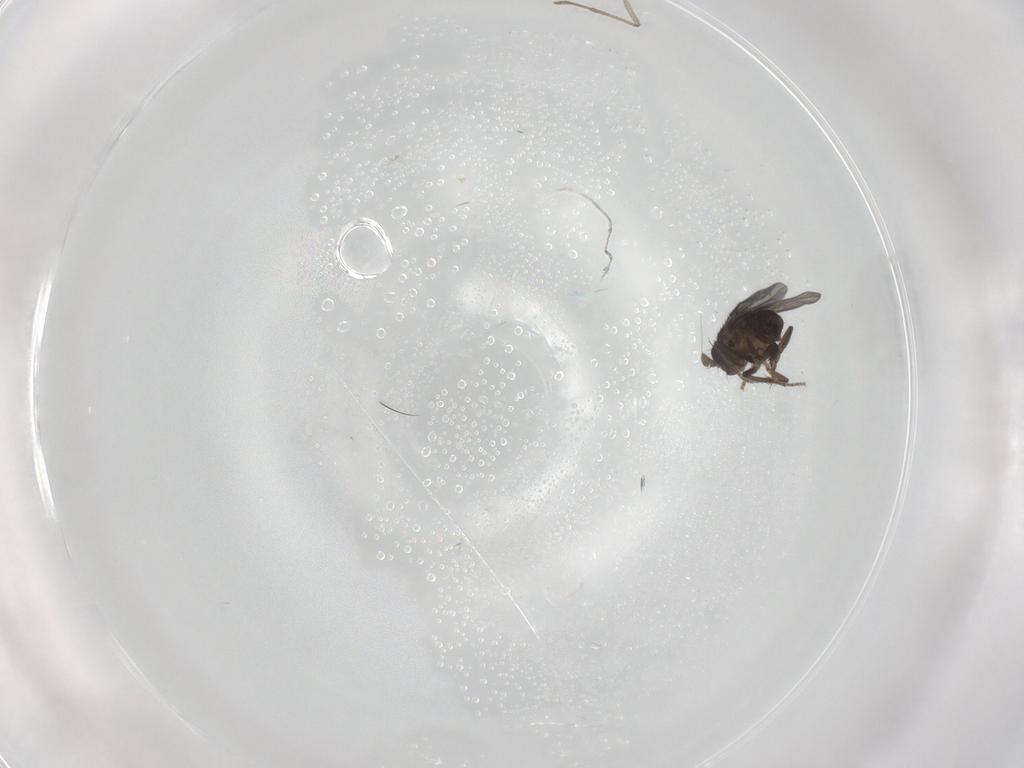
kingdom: Animalia
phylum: Arthropoda
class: Insecta
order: Diptera
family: Sphaeroceridae
